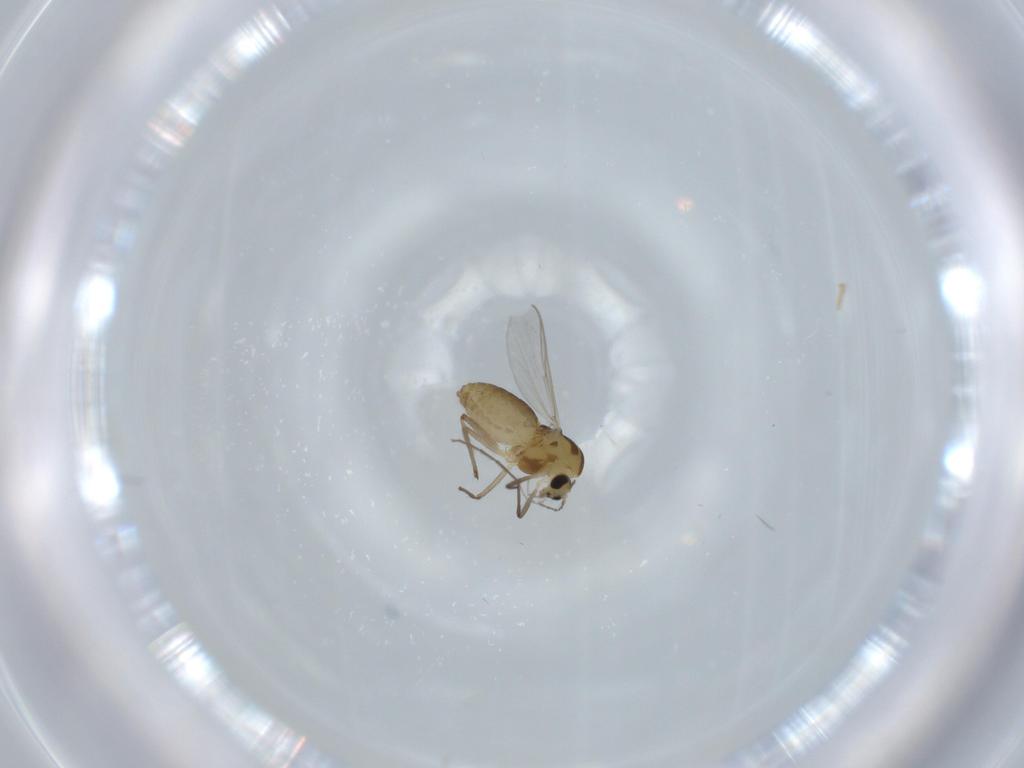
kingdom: Animalia
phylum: Arthropoda
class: Insecta
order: Diptera
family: Chironomidae
